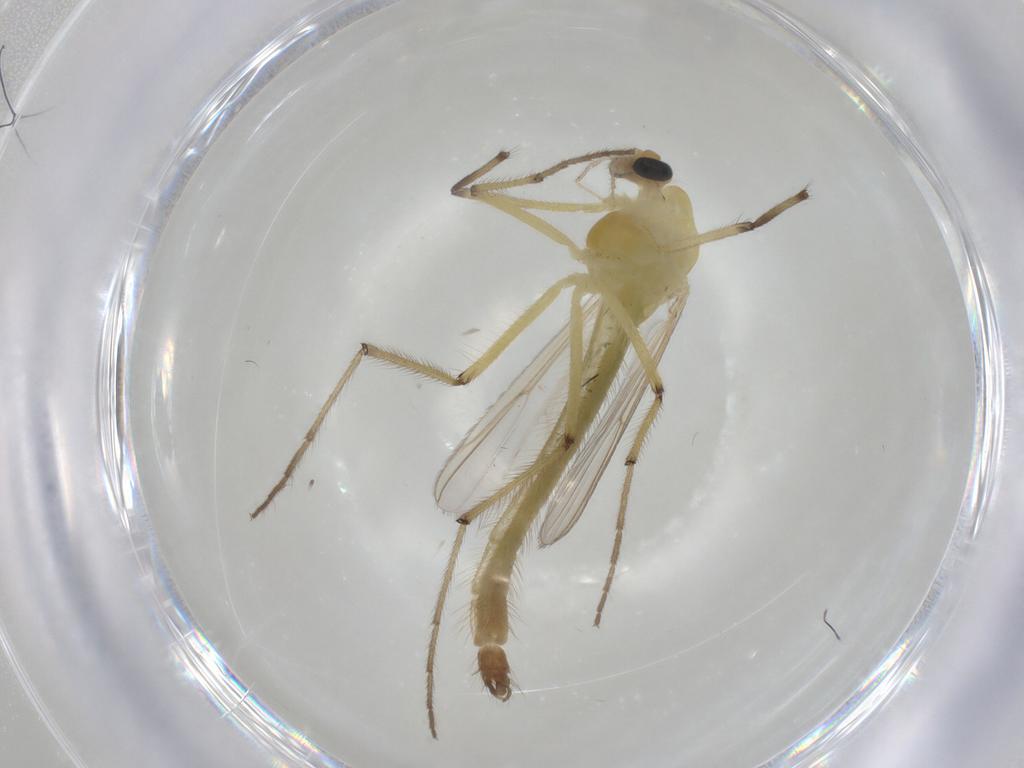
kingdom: Animalia
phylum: Arthropoda
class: Insecta
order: Diptera
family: Chironomidae
